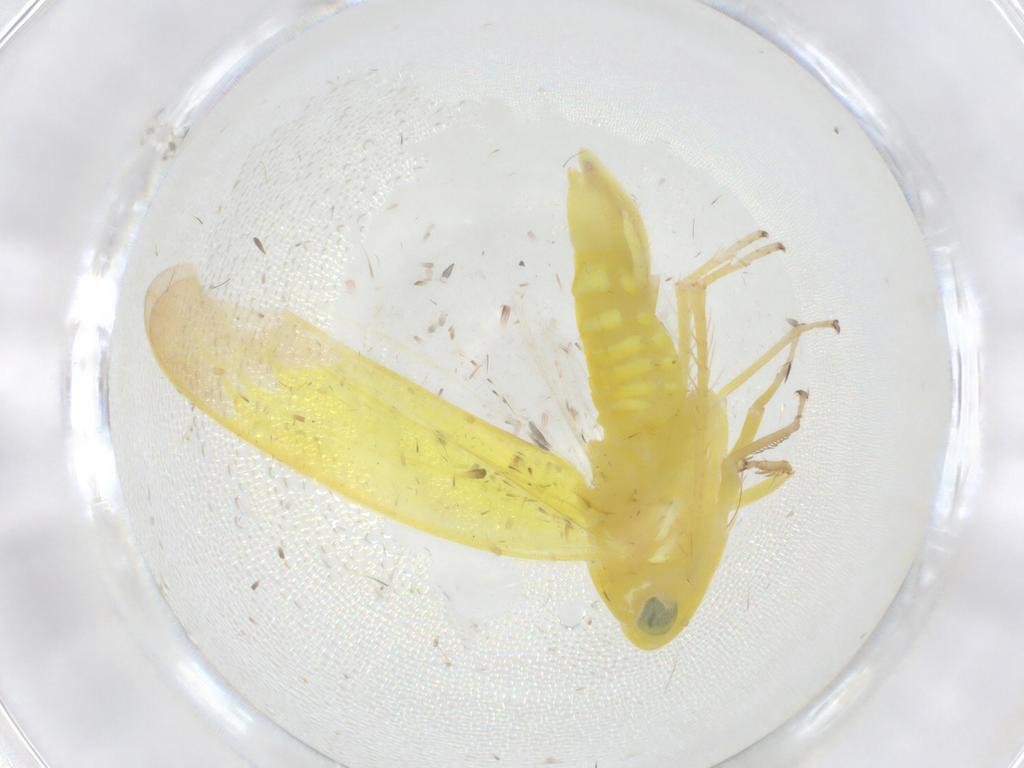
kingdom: Animalia
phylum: Arthropoda
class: Insecta
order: Hemiptera
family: Cicadellidae
